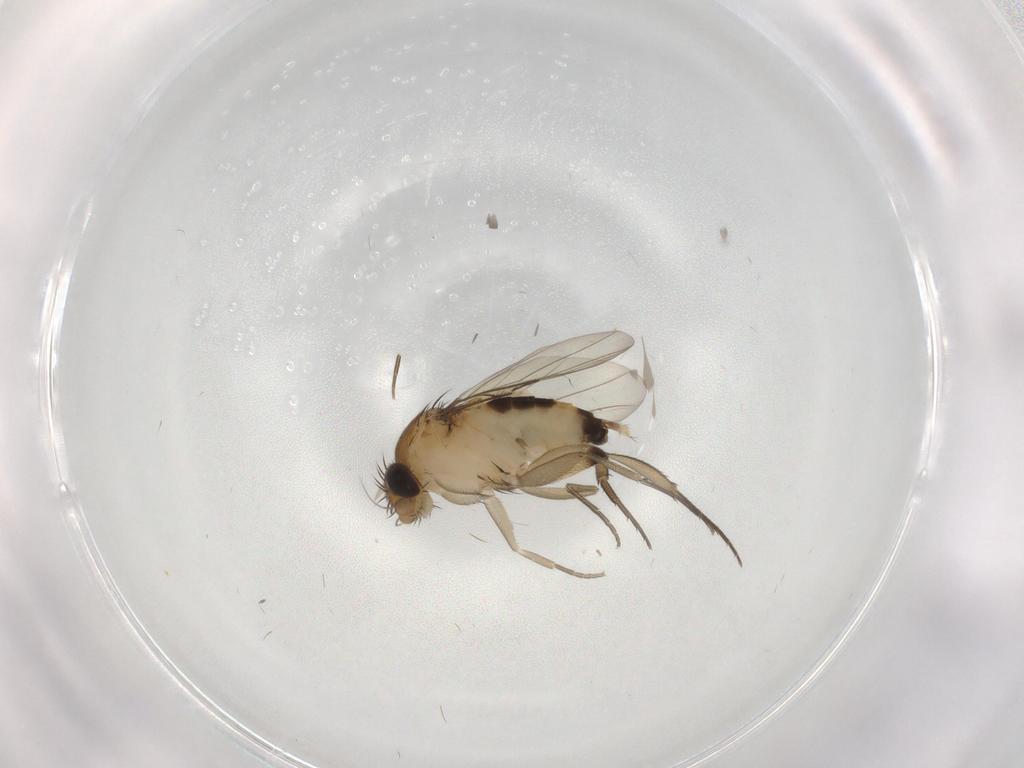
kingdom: Animalia
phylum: Arthropoda
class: Insecta
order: Diptera
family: Phoridae
